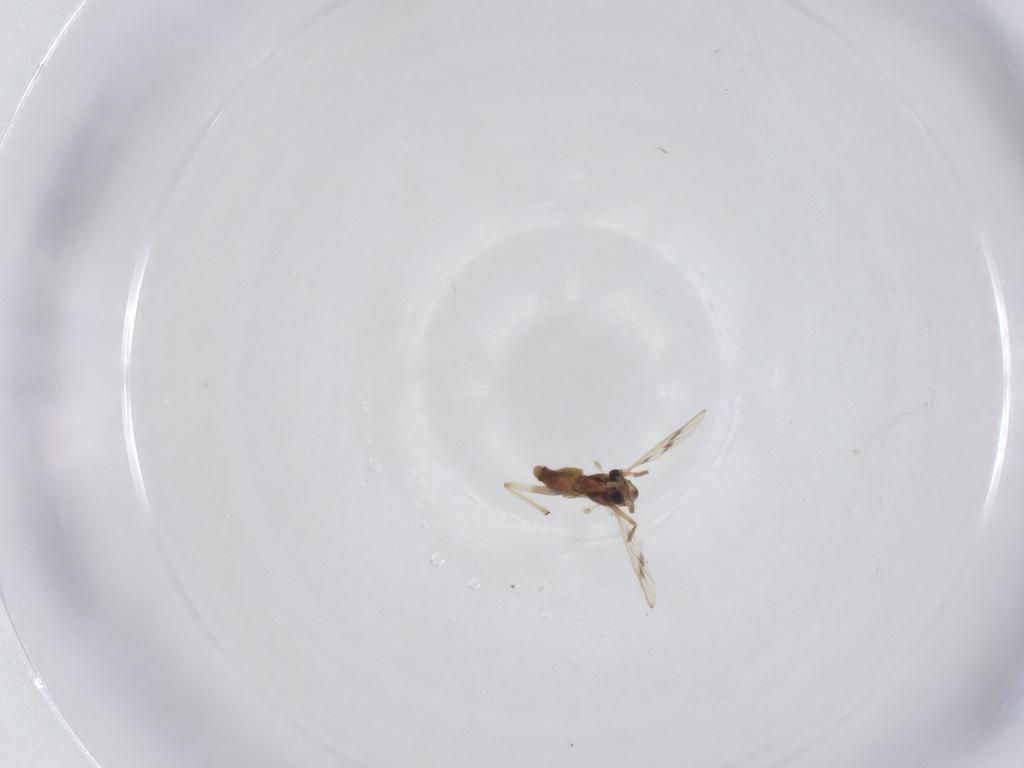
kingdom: Animalia
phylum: Arthropoda
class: Insecta
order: Diptera
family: Chironomidae
